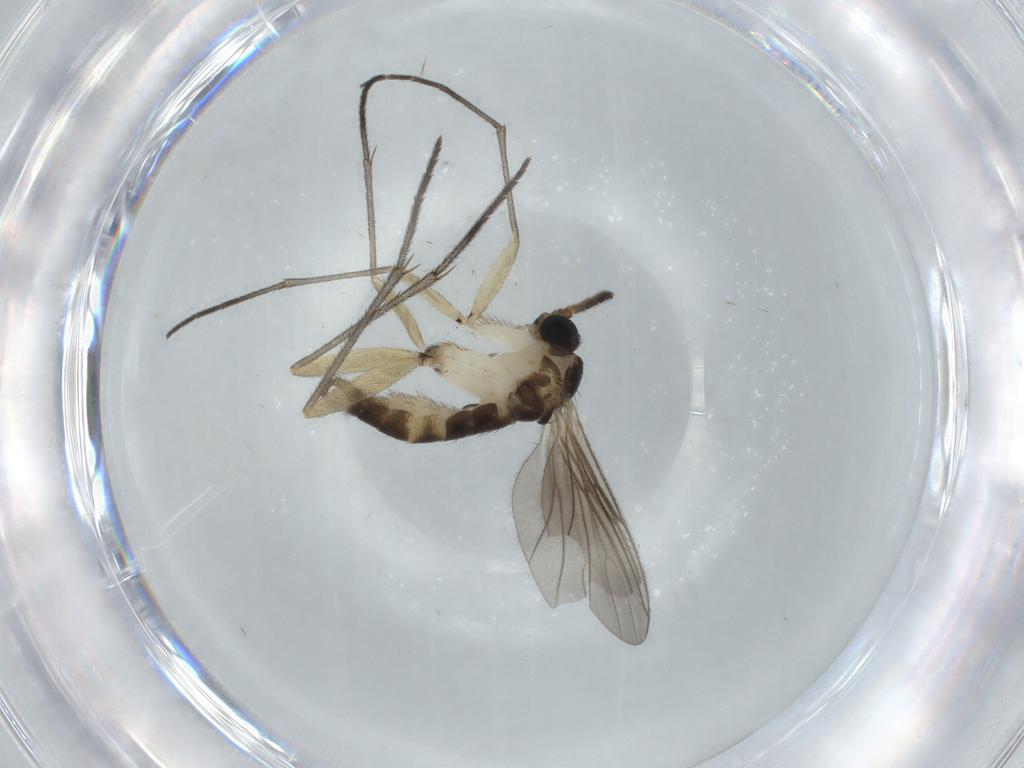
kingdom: Animalia
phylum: Arthropoda
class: Insecta
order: Diptera
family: Sciaridae
